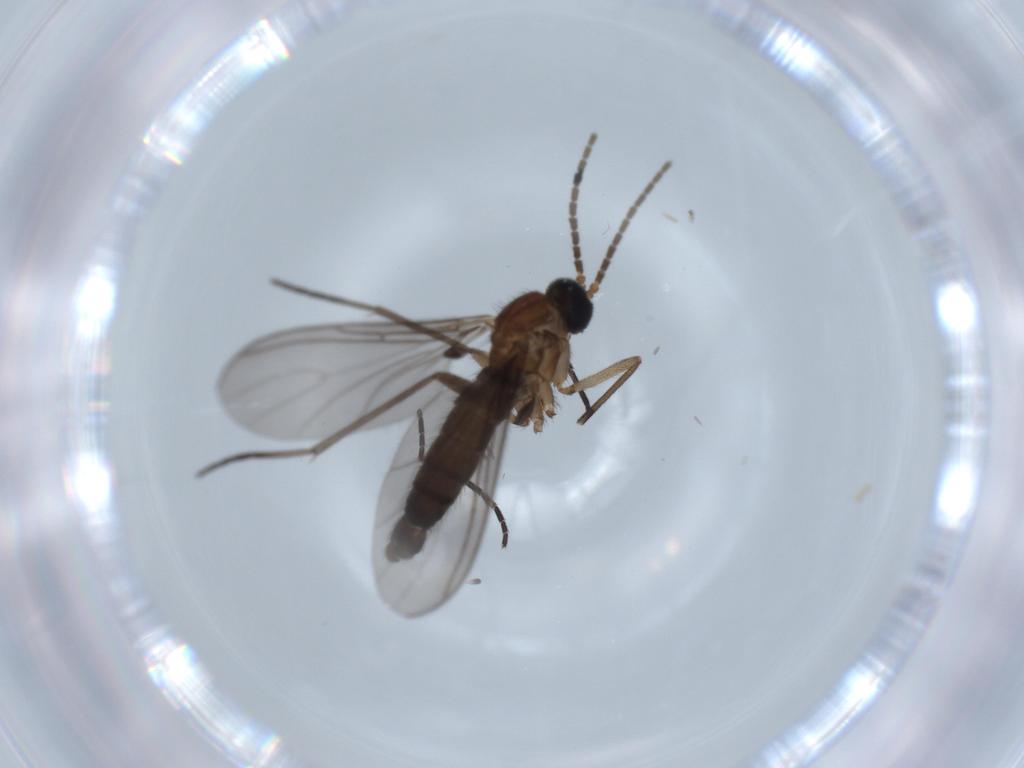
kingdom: Animalia
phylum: Arthropoda
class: Insecta
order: Diptera
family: Sciaridae
